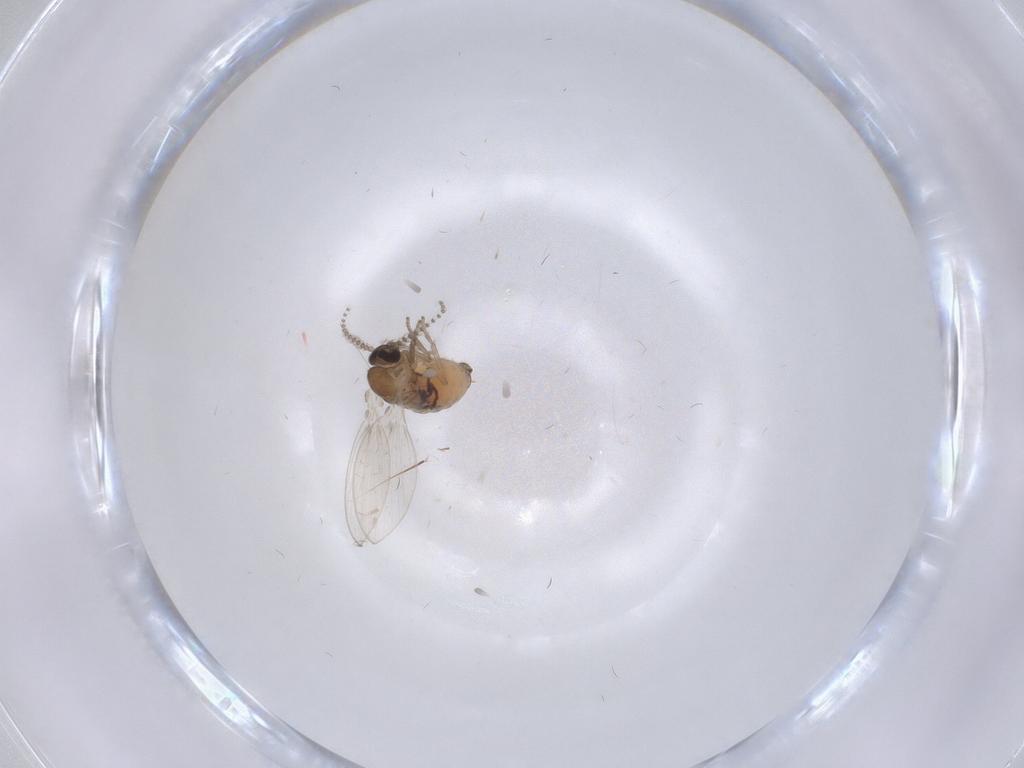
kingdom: Animalia
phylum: Arthropoda
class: Insecta
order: Diptera
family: Psychodidae
